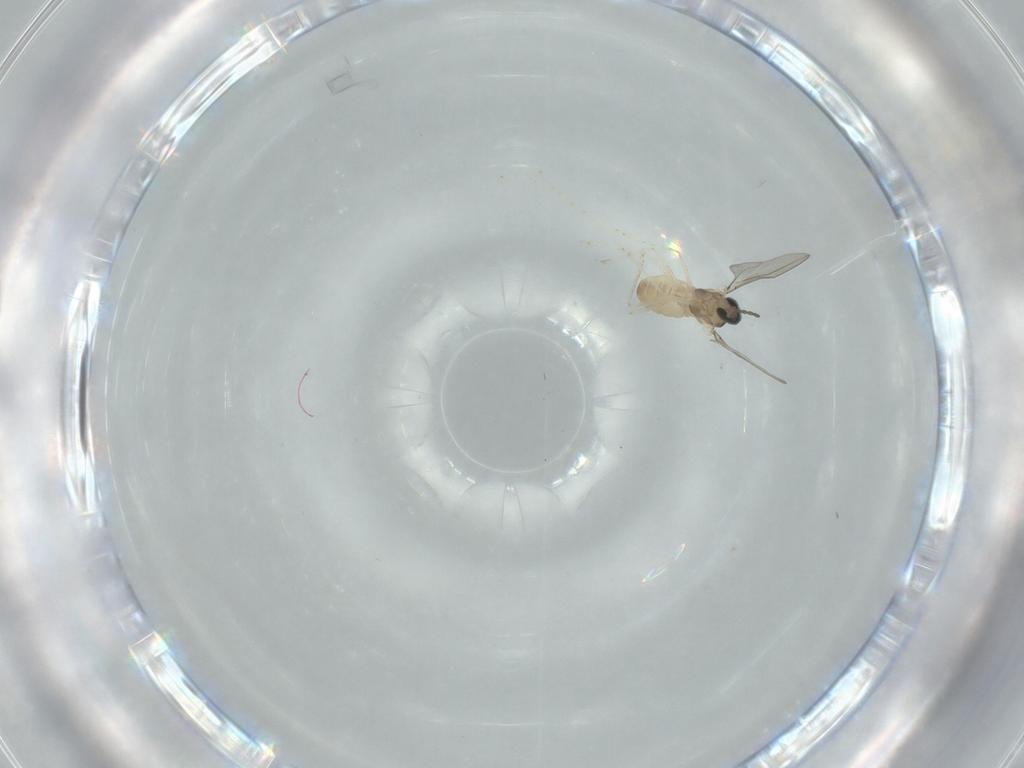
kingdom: Animalia
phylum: Arthropoda
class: Insecta
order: Diptera
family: Cecidomyiidae
